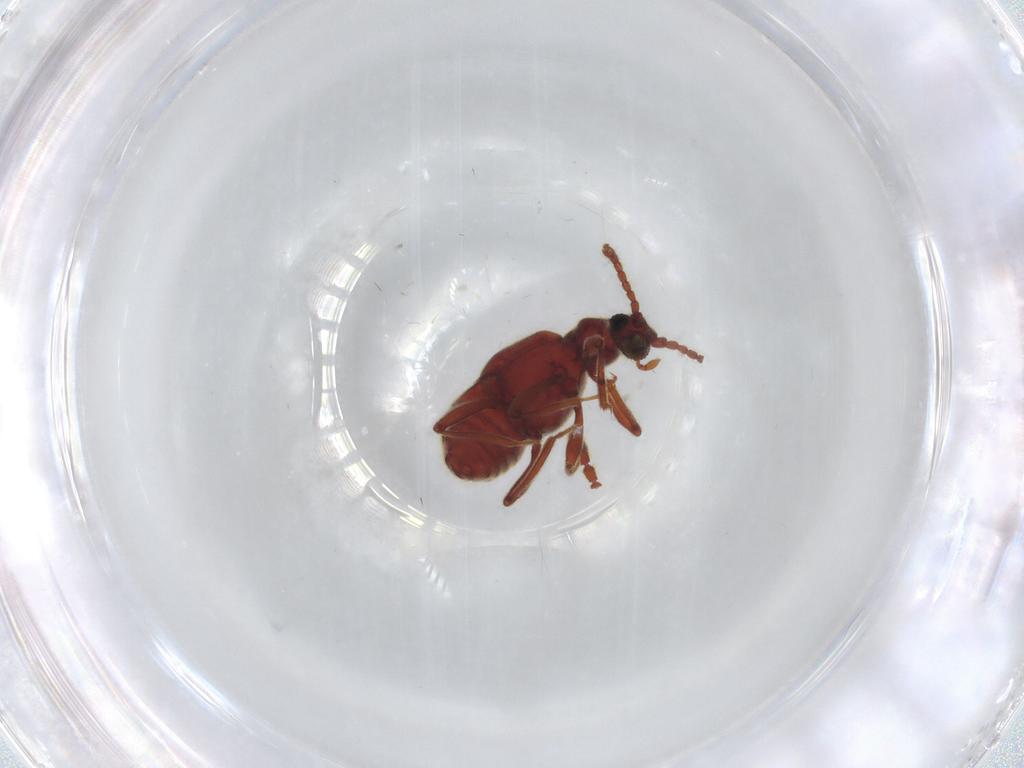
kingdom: Animalia
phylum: Arthropoda
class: Insecta
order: Coleoptera
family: Staphylinidae
